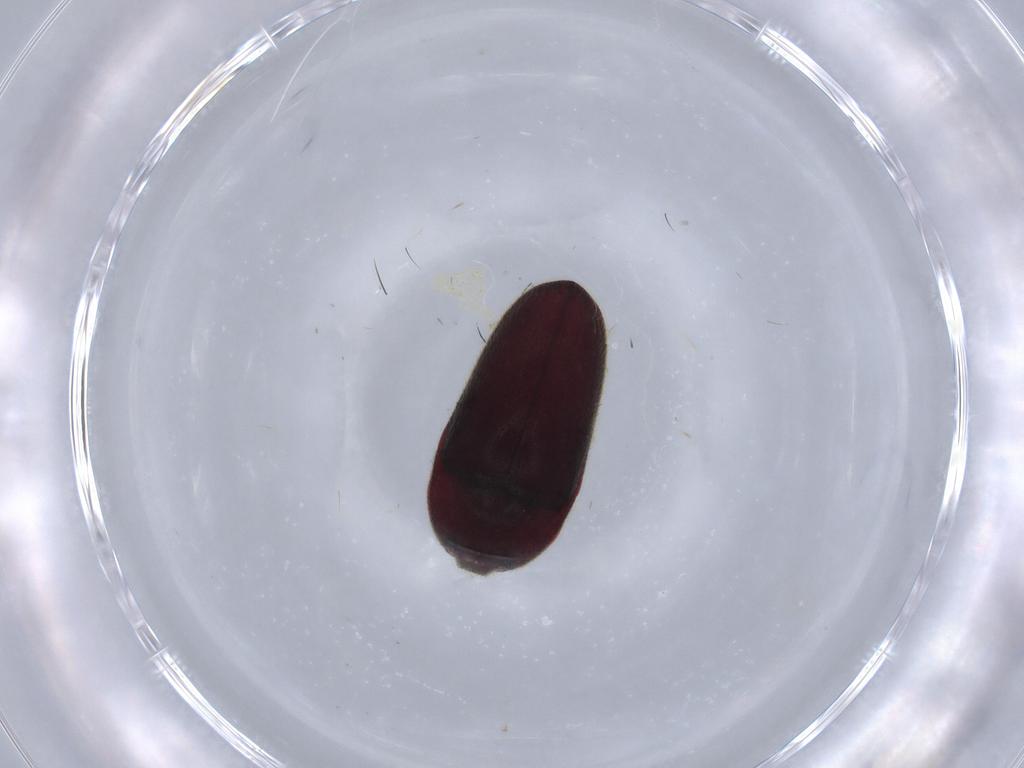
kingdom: Animalia
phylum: Arthropoda
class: Insecta
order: Coleoptera
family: Throscidae
